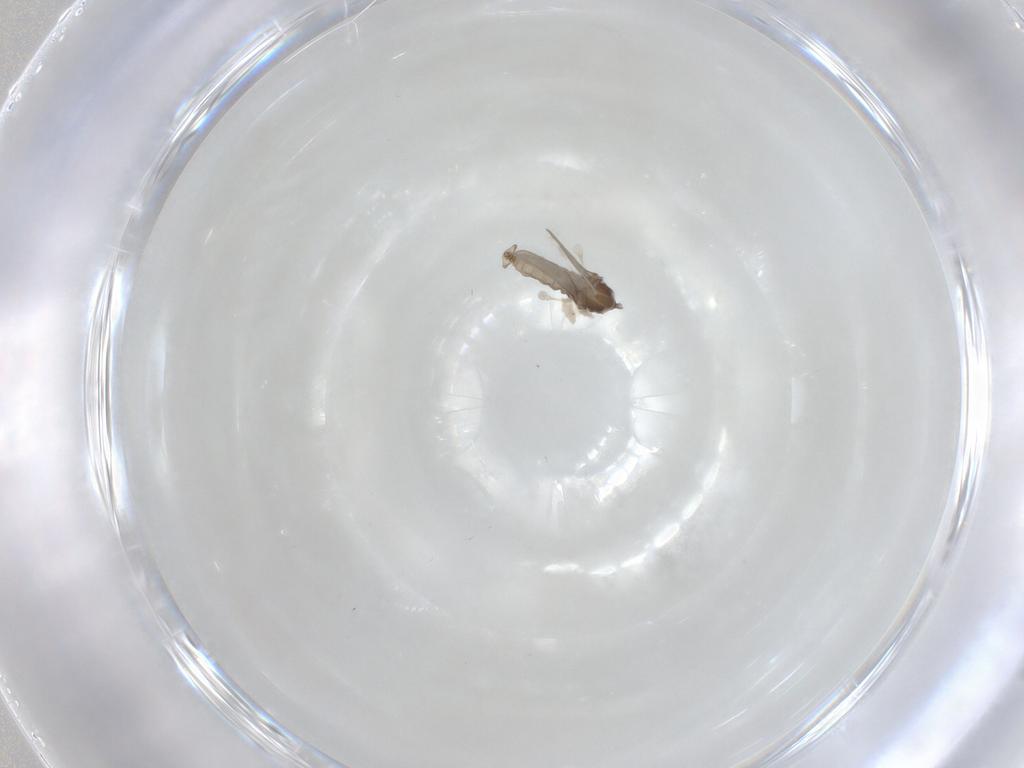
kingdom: Animalia
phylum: Arthropoda
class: Insecta
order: Diptera
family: Cecidomyiidae
